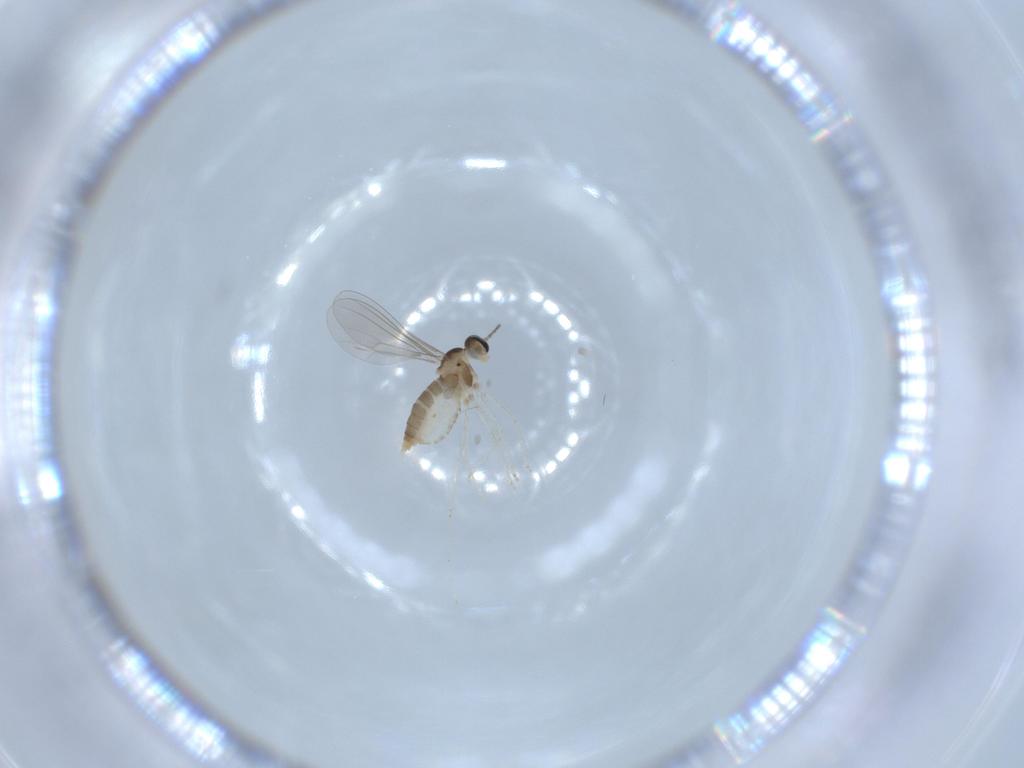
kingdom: Animalia
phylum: Arthropoda
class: Insecta
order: Diptera
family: Cecidomyiidae
